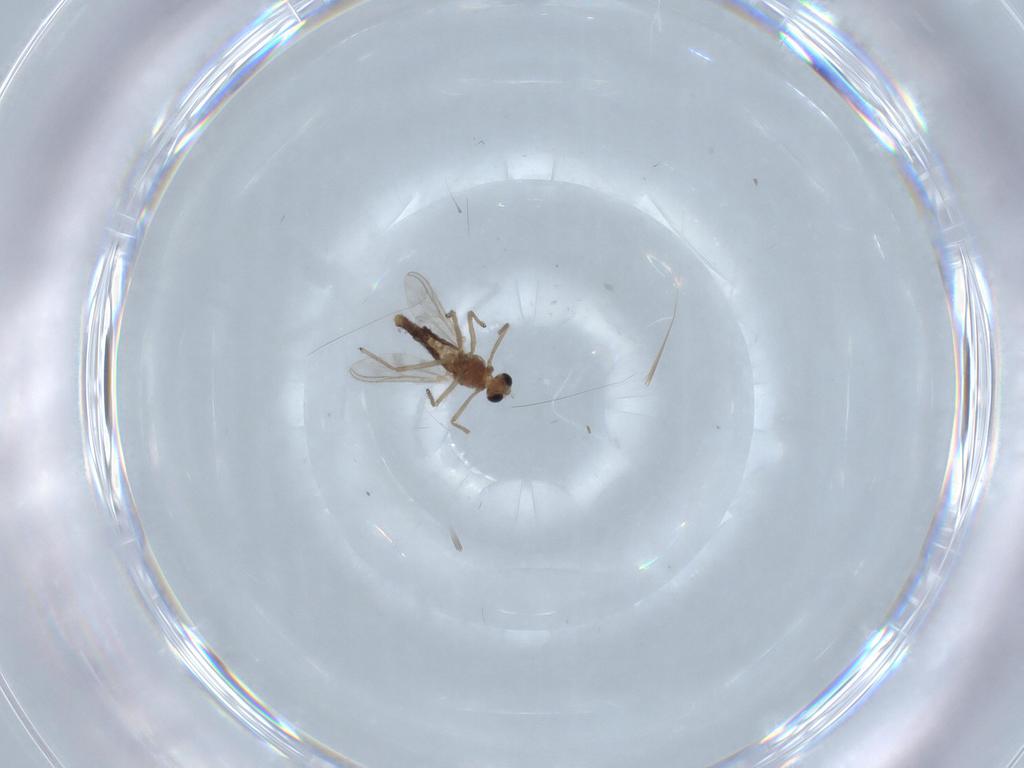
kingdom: Animalia
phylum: Arthropoda
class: Insecta
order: Diptera
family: Chironomidae
